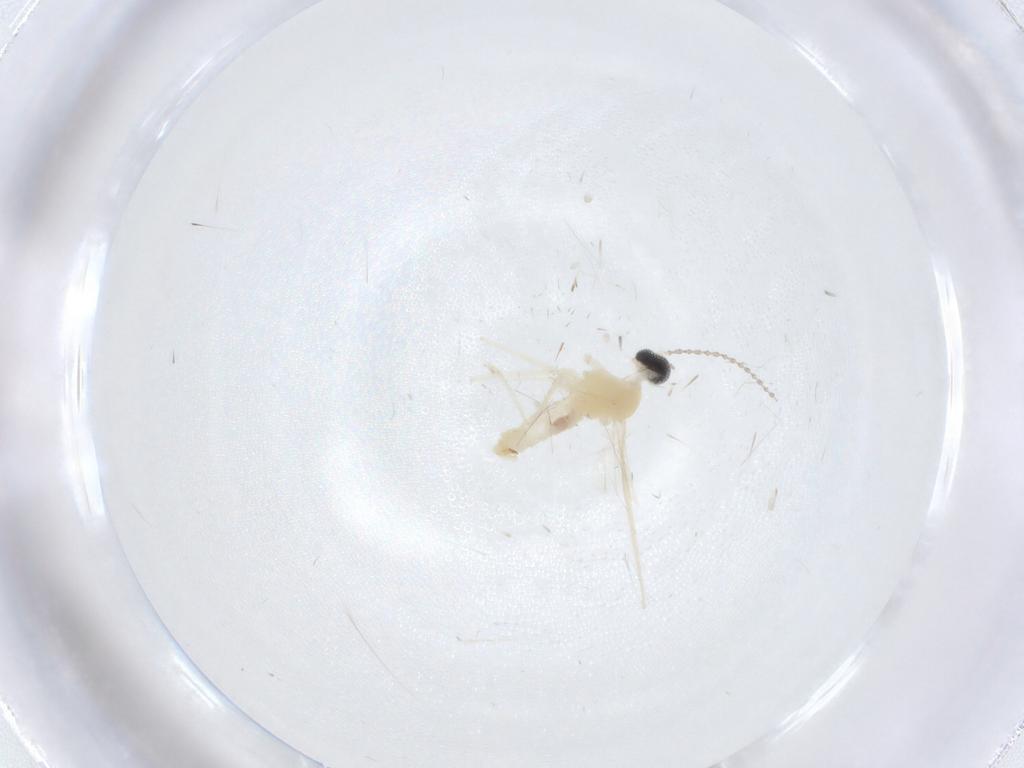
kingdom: Animalia
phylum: Arthropoda
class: Insecta
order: Diptera
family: Cecidomyiidae
